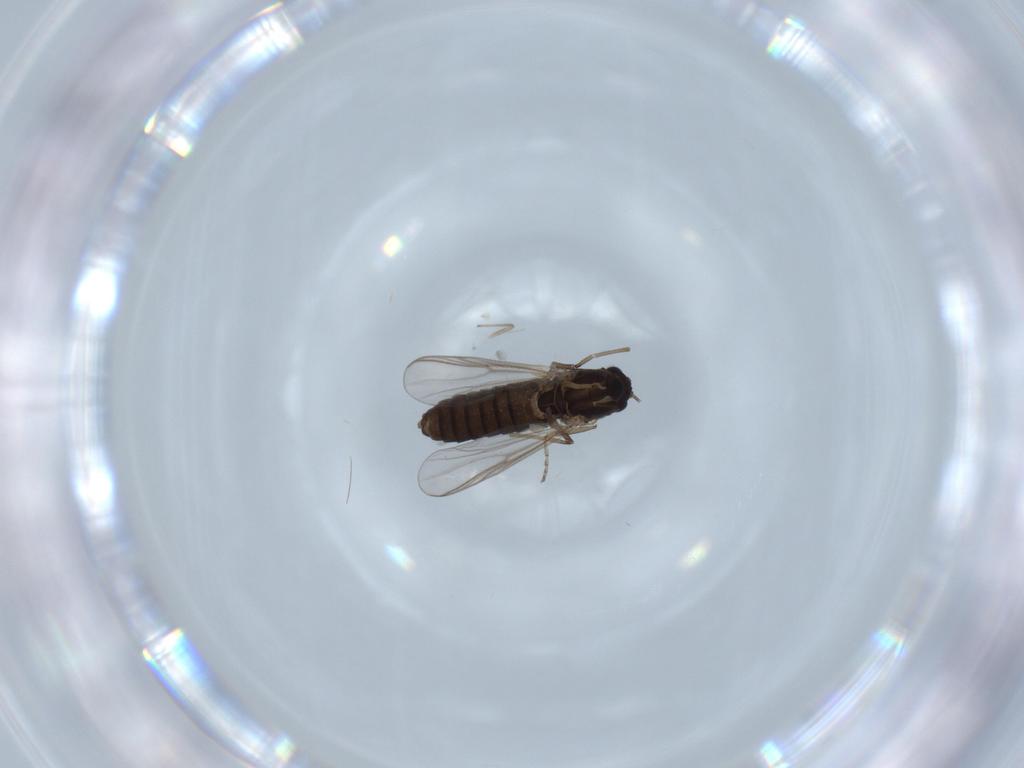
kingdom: Animalia
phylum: Arthropoda
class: Insecta
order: Diptera
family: Chironomidae
